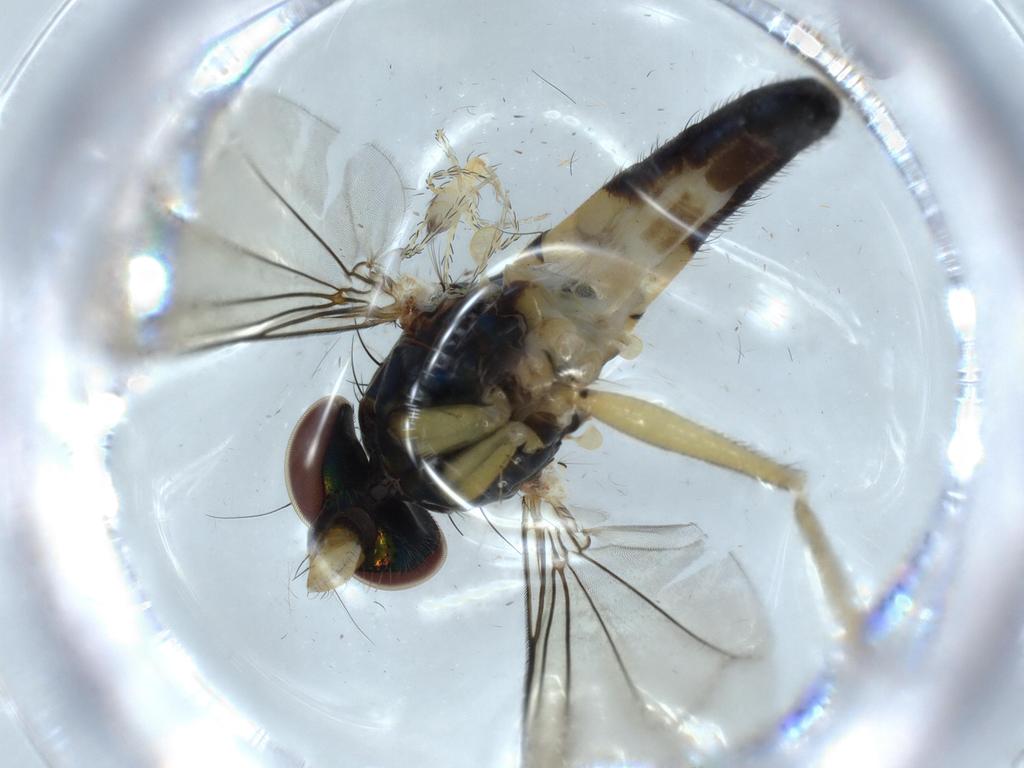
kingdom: Animalia
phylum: Arthropoda
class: Insecta
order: Diptera
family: Dolichopodidae
